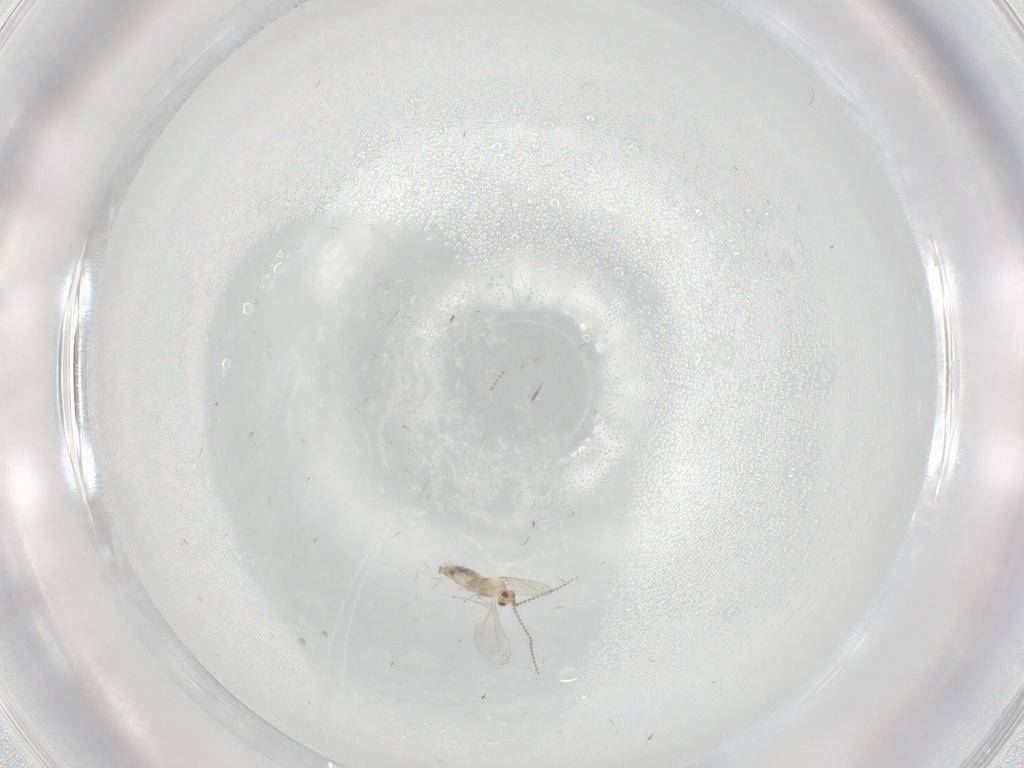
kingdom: Animalia
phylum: Arthropoda
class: Insecta
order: Diptera
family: Cecidomyiidae
